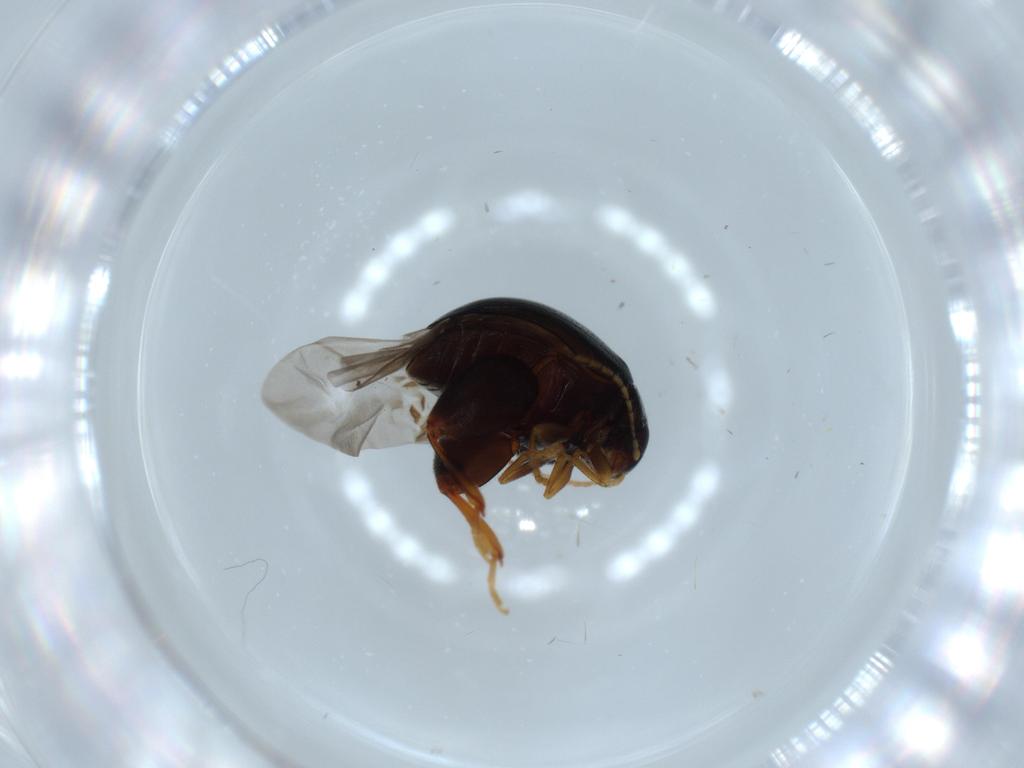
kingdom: Animalia
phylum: Arthropoda
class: Insecta
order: Coleoptera
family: Chrysomelidae
